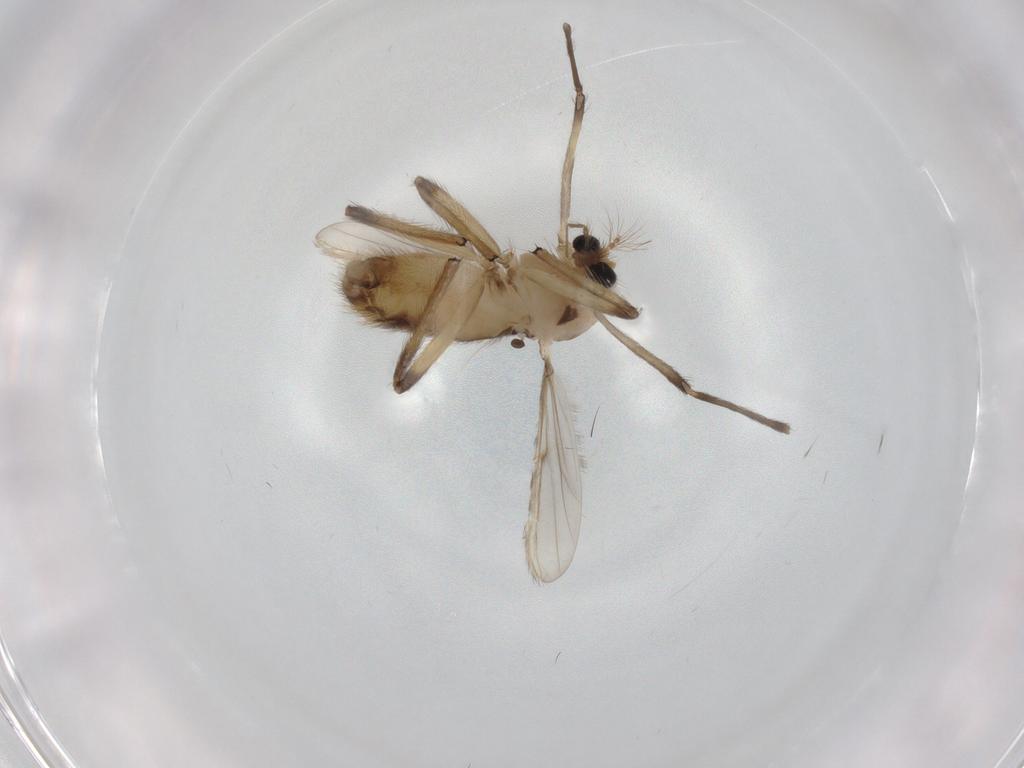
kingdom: Animalia
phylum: Arthropoda
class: Insecta
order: Diptera
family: Chironomidae
